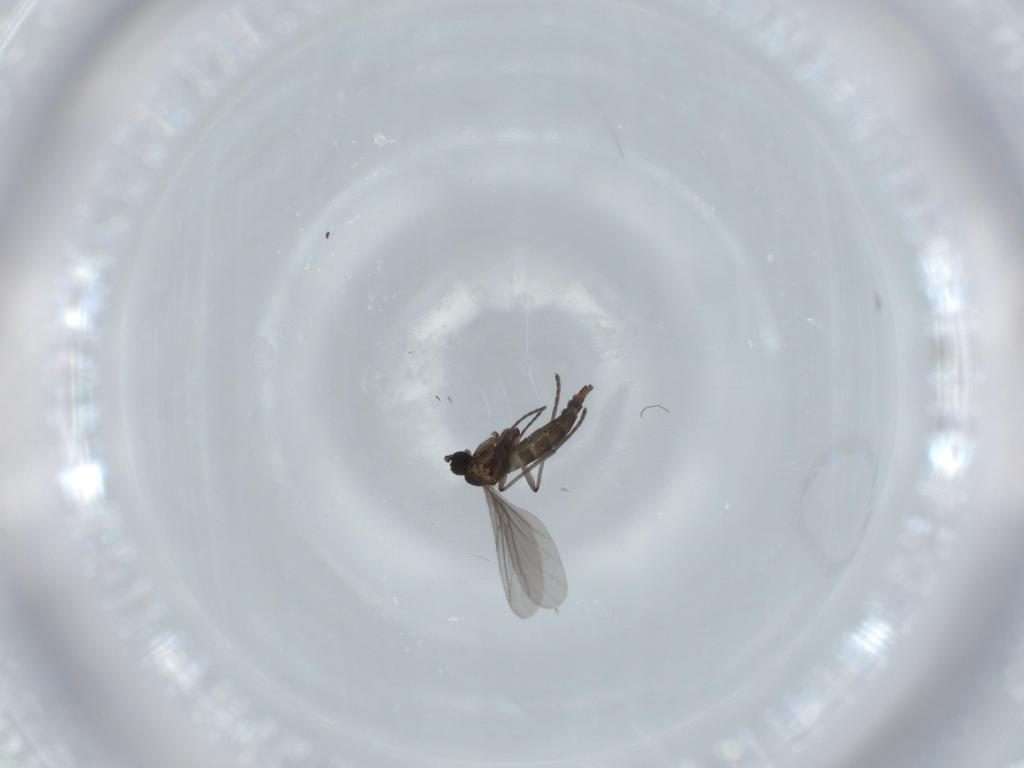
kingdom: Animalia
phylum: Arthropoda
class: Insecta
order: Diptera
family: Sciaridae
